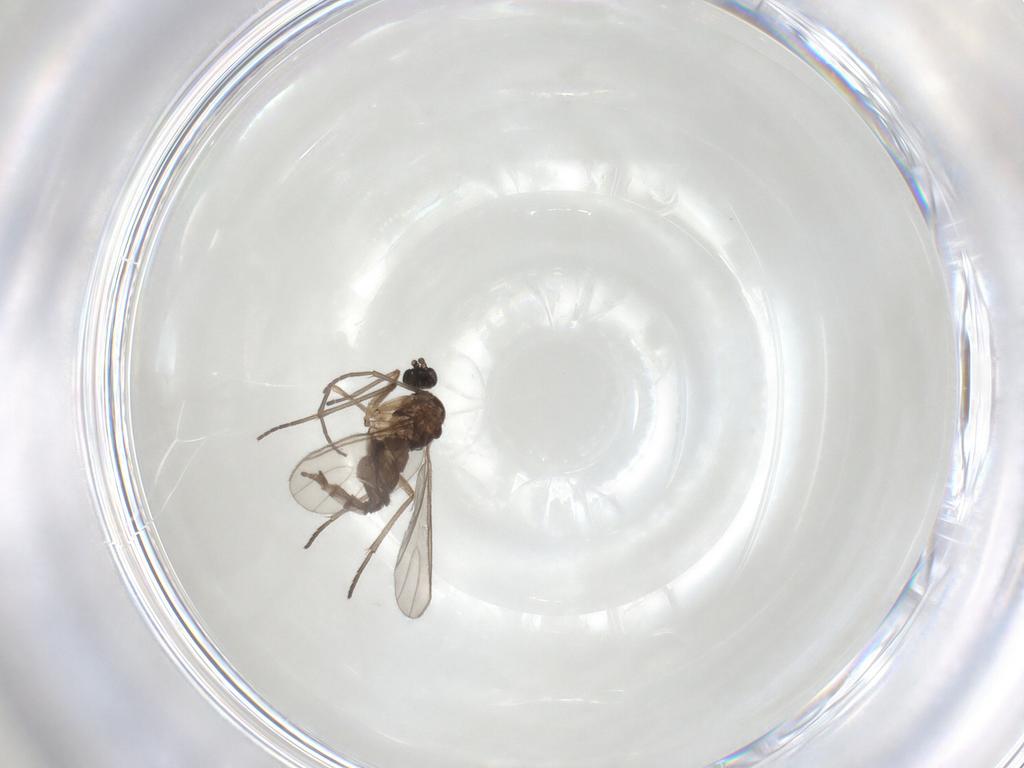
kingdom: Animalia
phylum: Arthropoda
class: Insecta
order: Diptera
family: Sciaridae
